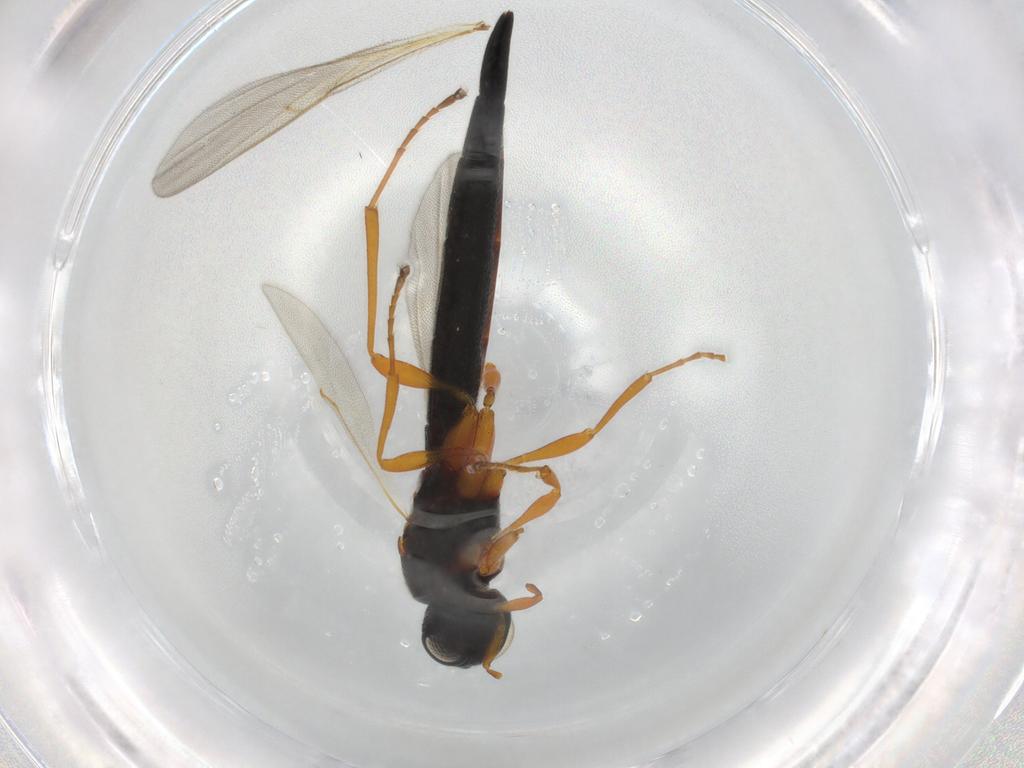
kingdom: Animalia
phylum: Arthropoda
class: Insecta
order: Hymenoptera
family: Scelionidae
